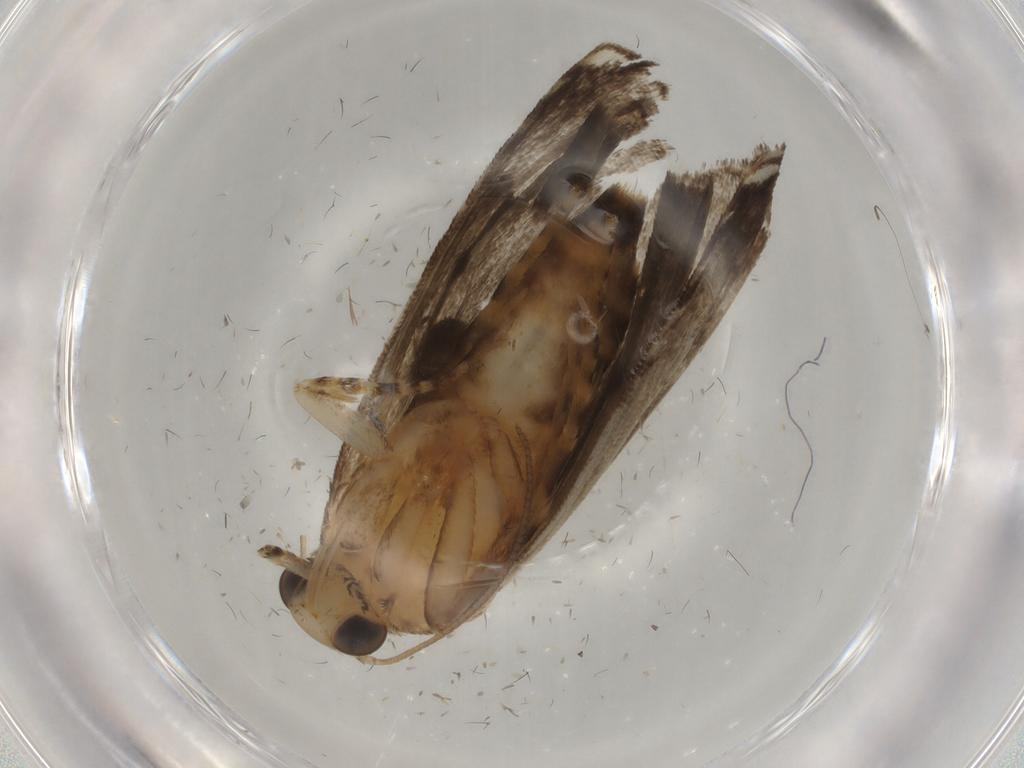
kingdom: Animalia
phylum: Arthropoda
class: Insecta
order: Lepidoptera
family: Immidae
